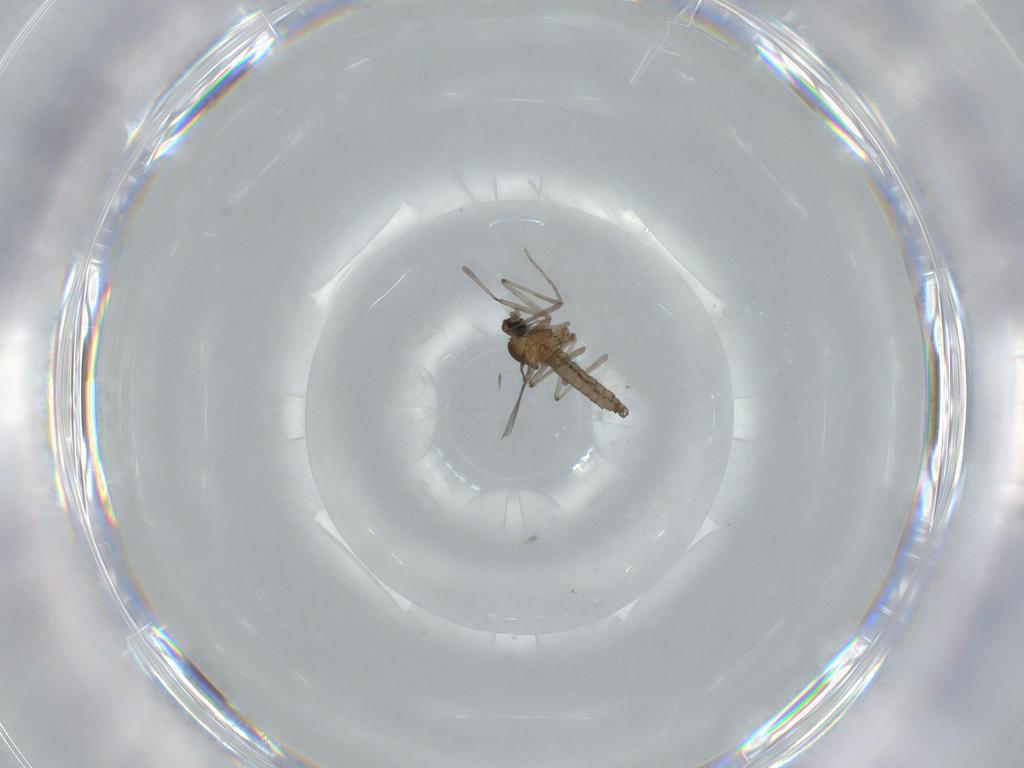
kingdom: Animalia
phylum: Arthropoda
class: Insecta
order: Diptera
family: Cecidomyiidae
